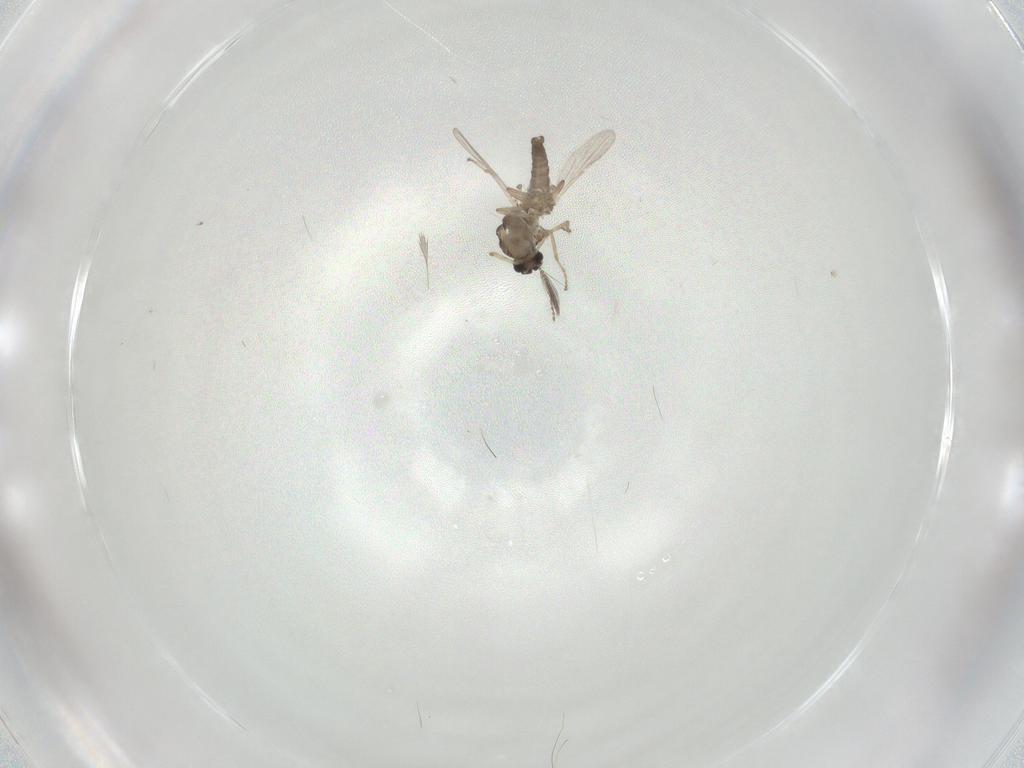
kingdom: Animalia
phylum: Arthropoda
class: Insecta
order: Diptera
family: Ceratopogonidae
